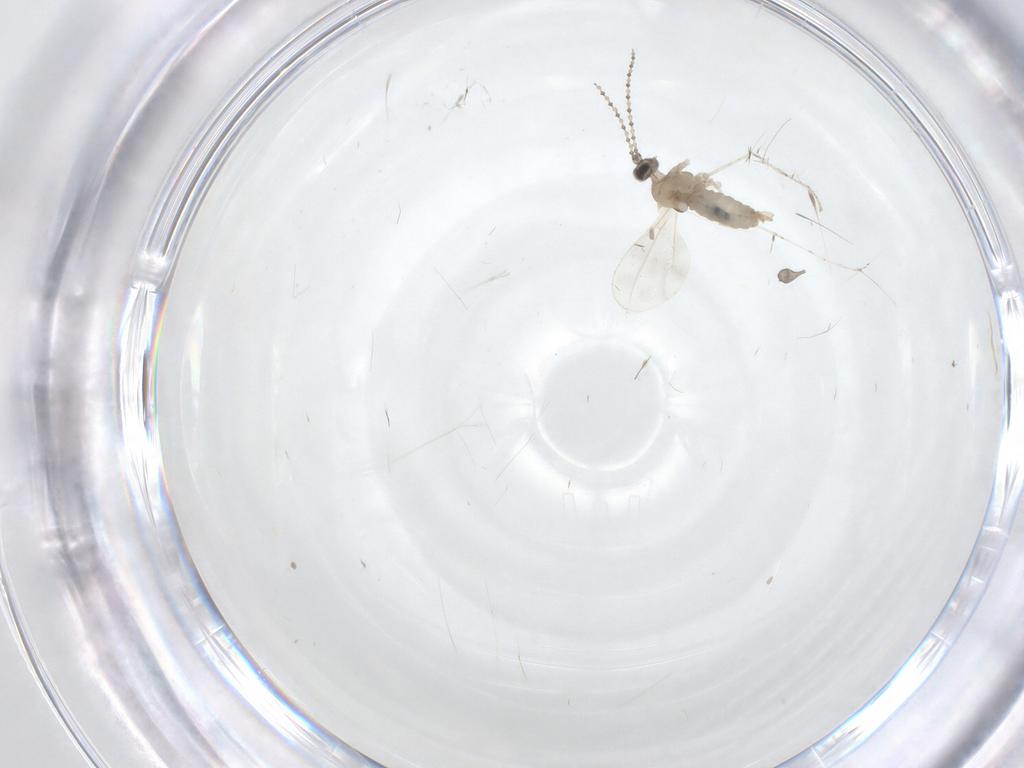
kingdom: Animalia
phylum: Arthropoda
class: Insecta
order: Diptera
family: Cecidomyiidae
